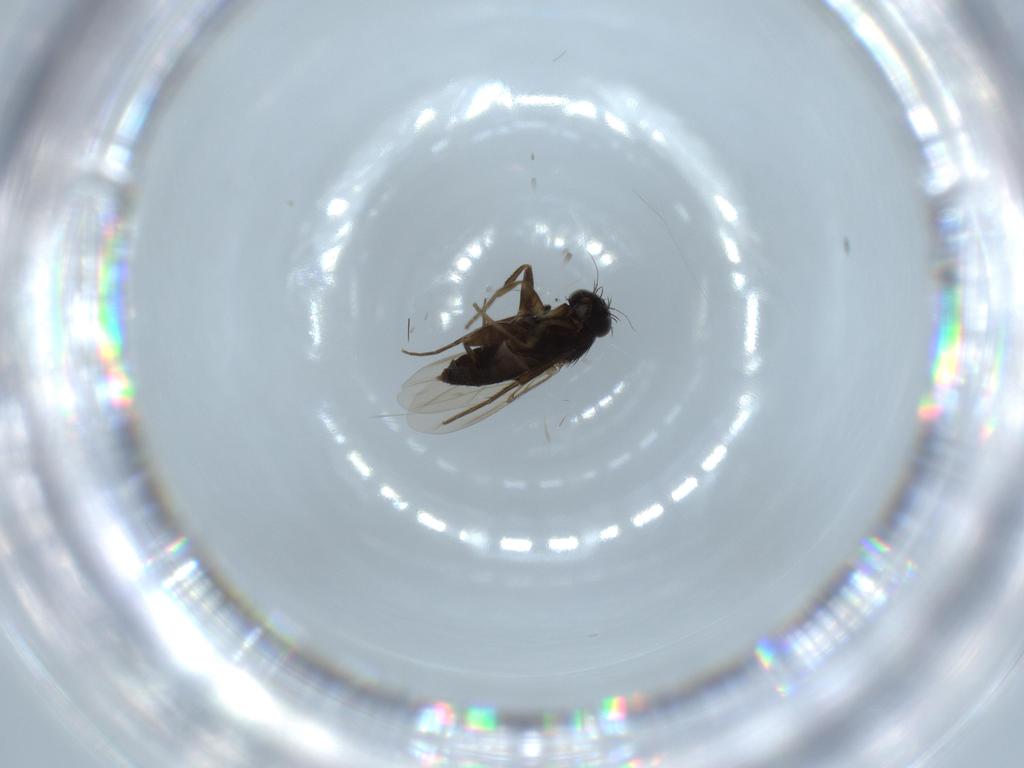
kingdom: Animalia
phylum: Arthropoda
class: Insecta
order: Diptera
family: Phoridae
